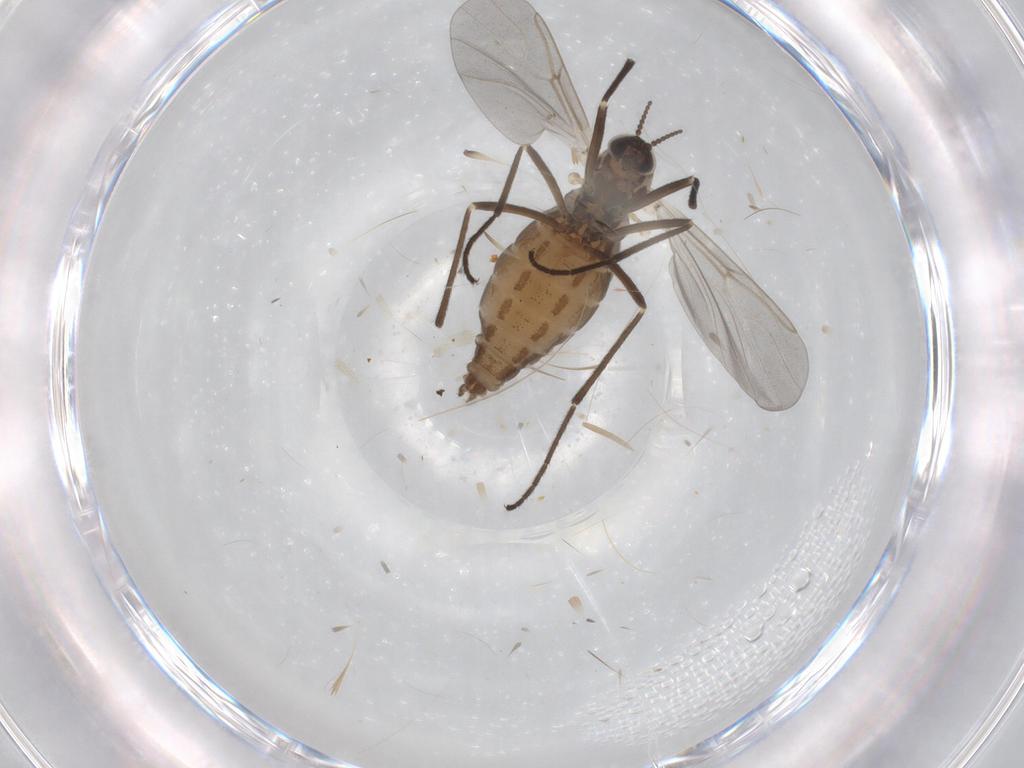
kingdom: Animalia
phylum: Arthropoda
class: Insecta
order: Diptera
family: Cecidomyiidae
